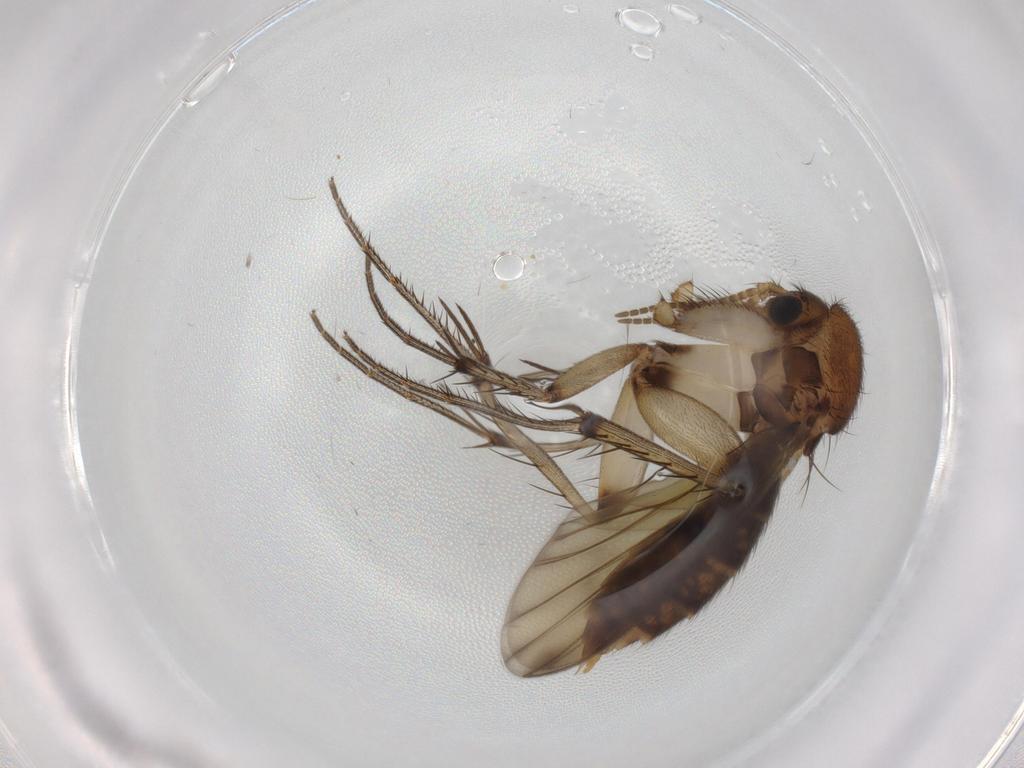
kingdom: Animalia
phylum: Arthropoda
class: Insecta
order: Diptera
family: Chironomidae
